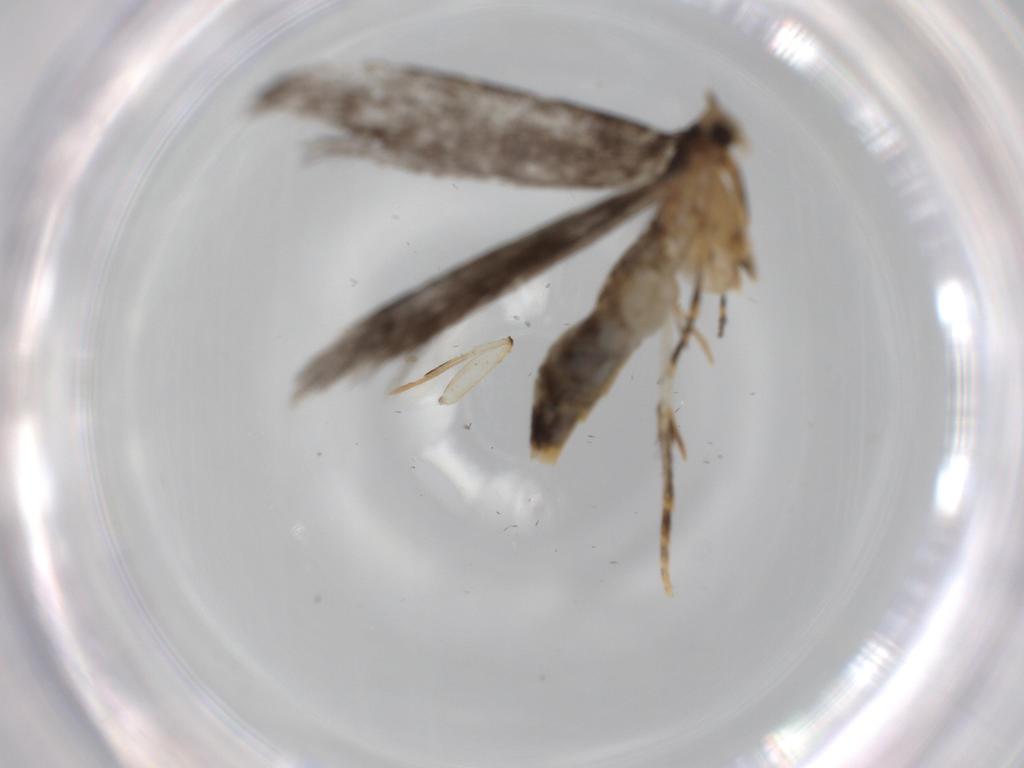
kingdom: Animalia
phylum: Arthropoda
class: Insecta
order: Lepidoptera
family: Tineidae
